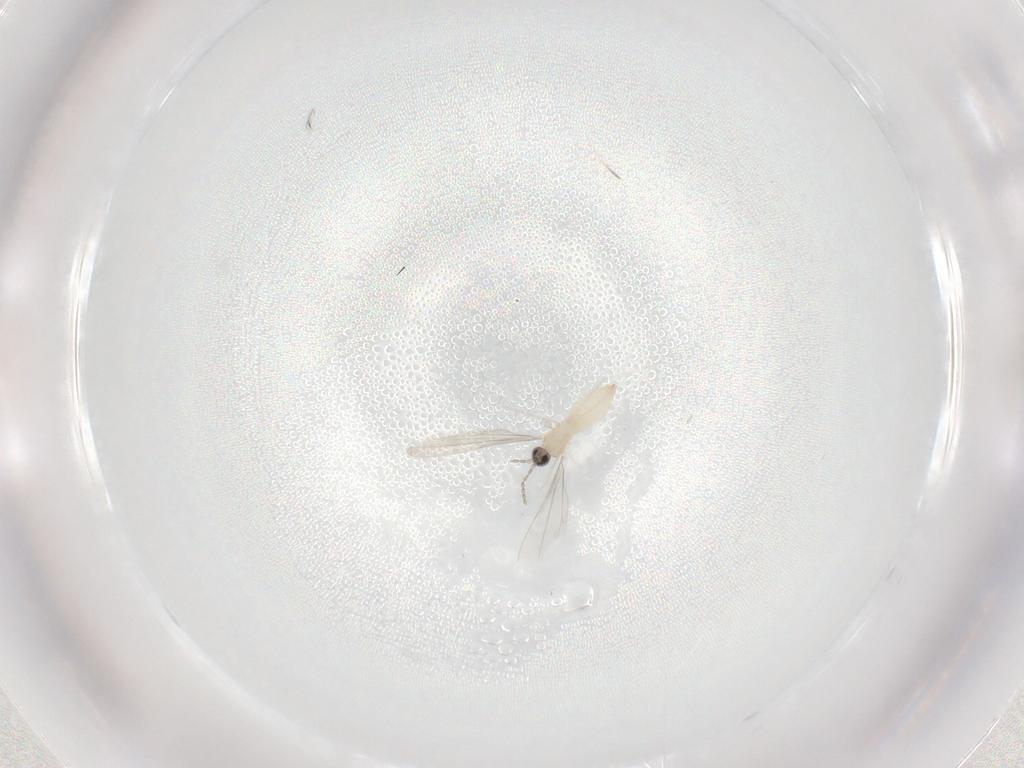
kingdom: Animalia
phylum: Arthropoda
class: Insecta
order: Diptera
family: Cecidomyiidae
